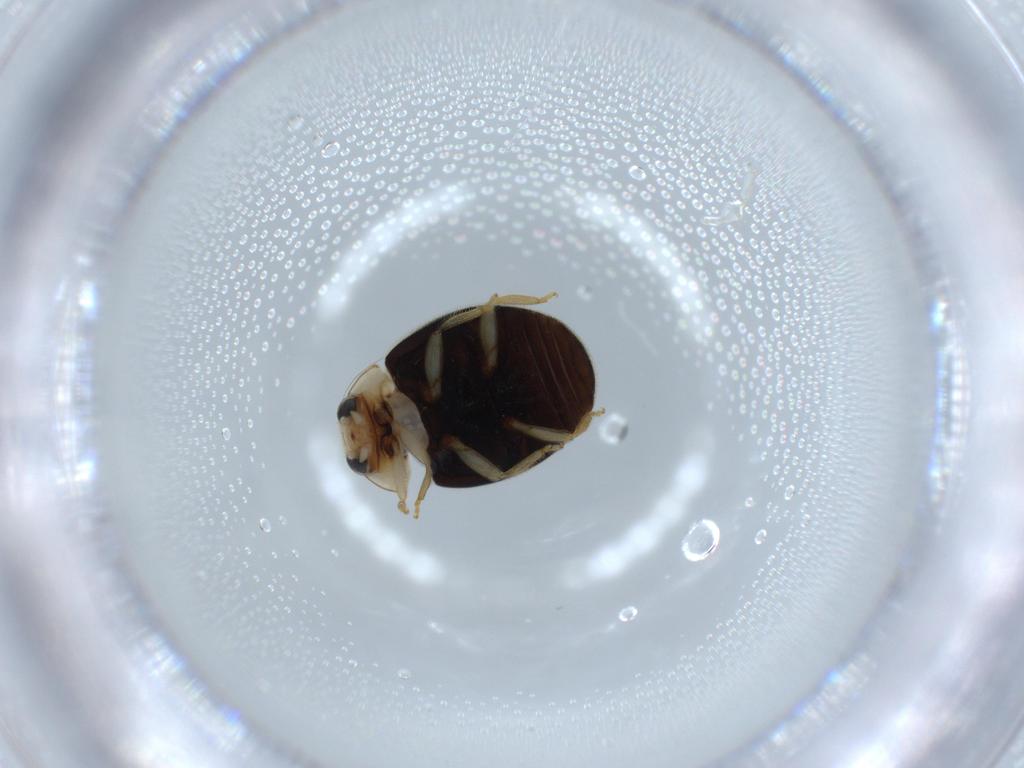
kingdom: Animalia
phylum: Arthropoda
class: Insecta
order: Coleoptera
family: Coccinellidae
